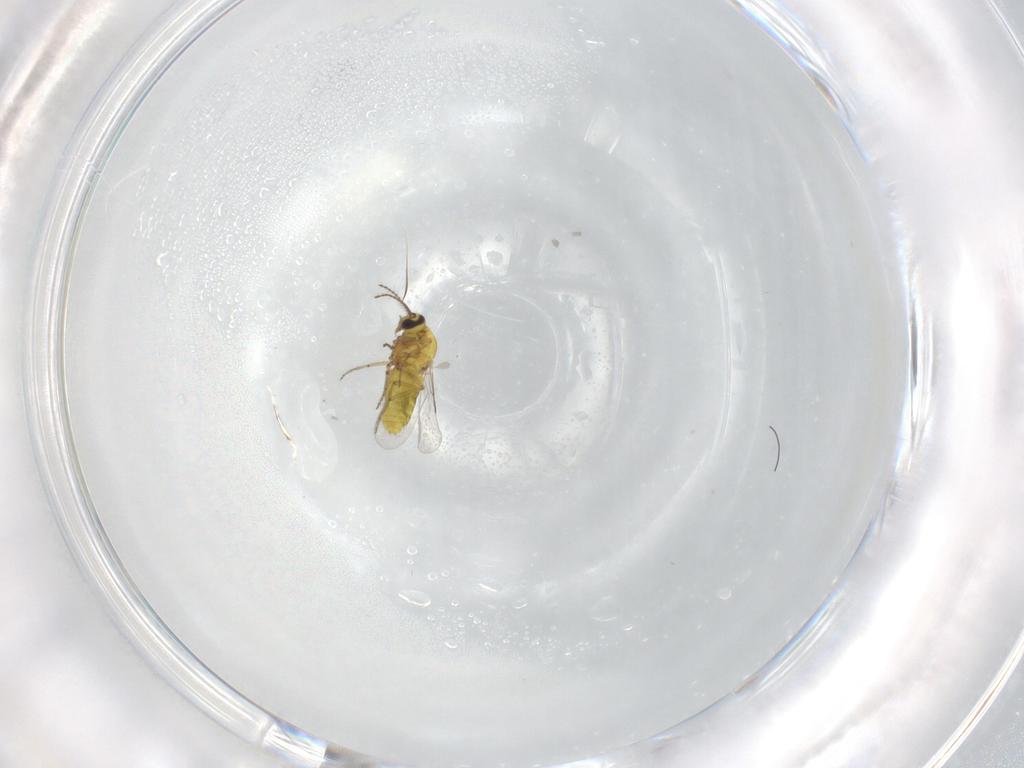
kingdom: Animalia
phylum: Arthropoda
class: Insecta
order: Diptera
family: Ceratopogonidae
